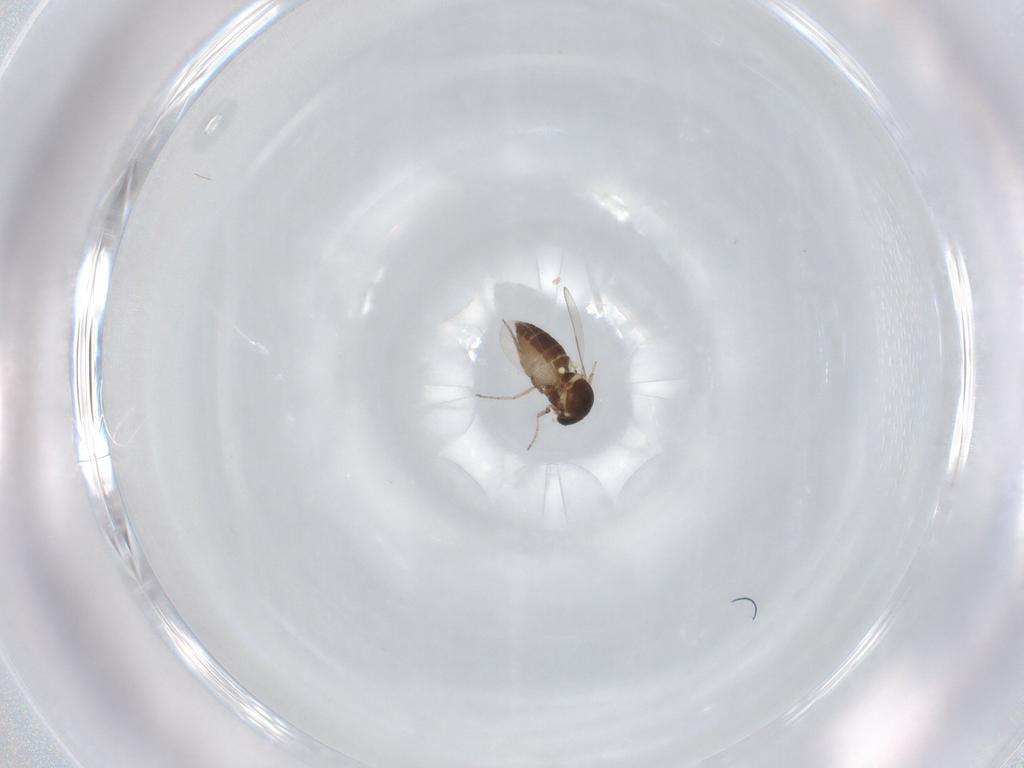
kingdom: Animalia
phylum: Arthropoda
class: Insecta
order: Diptera
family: Ceratopogonidae
